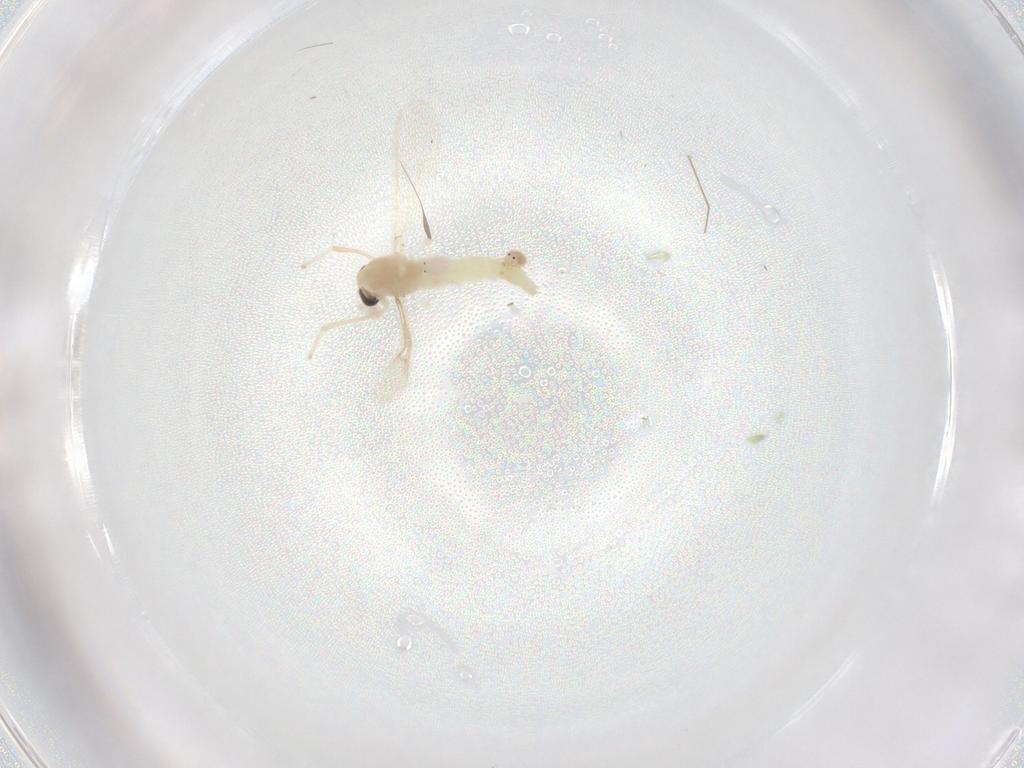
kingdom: Animalia
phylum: Arthropoda
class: Insecta
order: Diptera
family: Chironomidae
